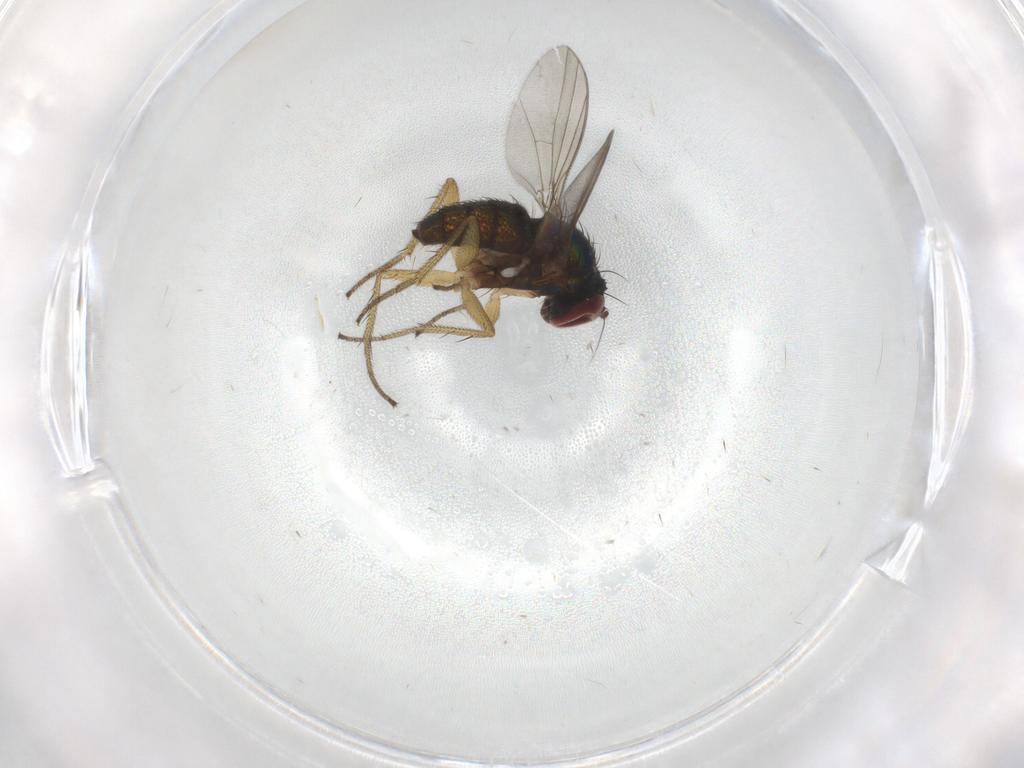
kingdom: Animalia
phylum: Arthropoda
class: Insecta
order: Diptera
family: Dolichopodidae
